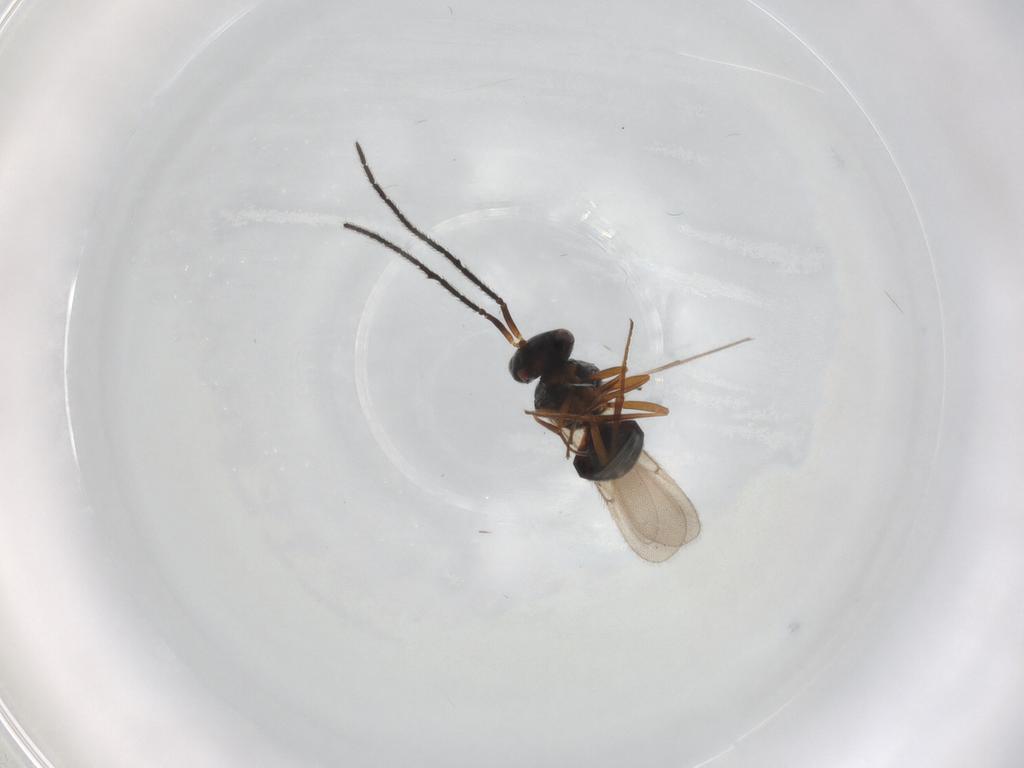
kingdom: Animalia
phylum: Arthropoda
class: Insecta
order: Hymenoptera
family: Scelionidae
